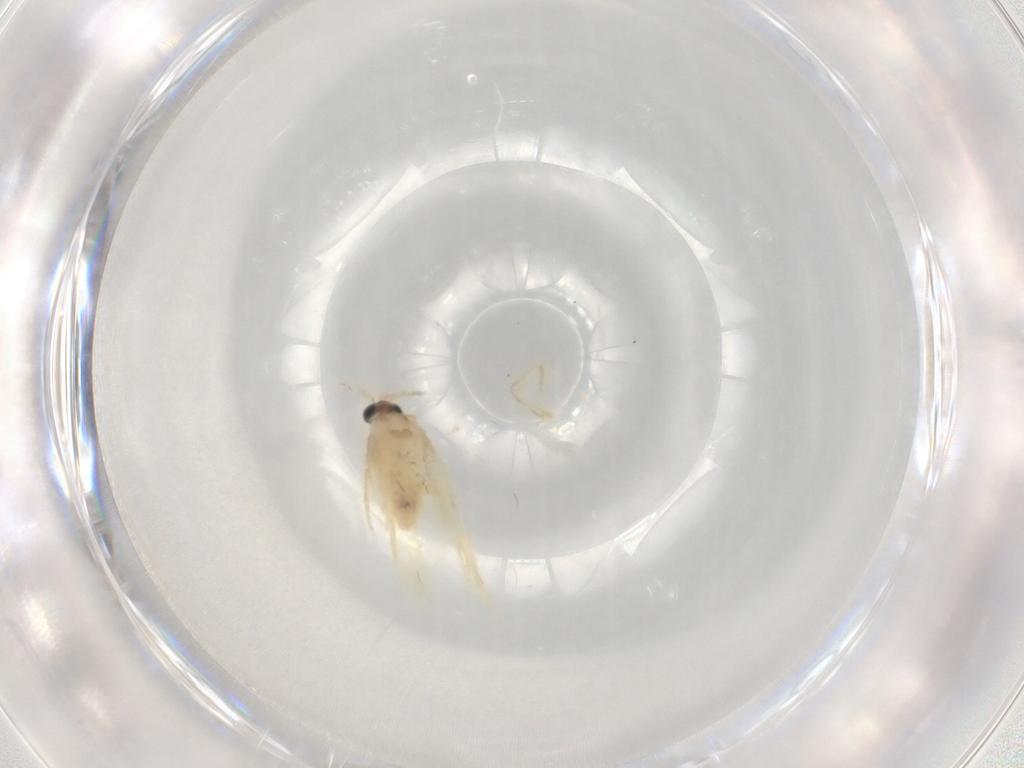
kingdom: Animalia
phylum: Arthropoda
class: Insecta
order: Lepidoptera
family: Nepticulidae
